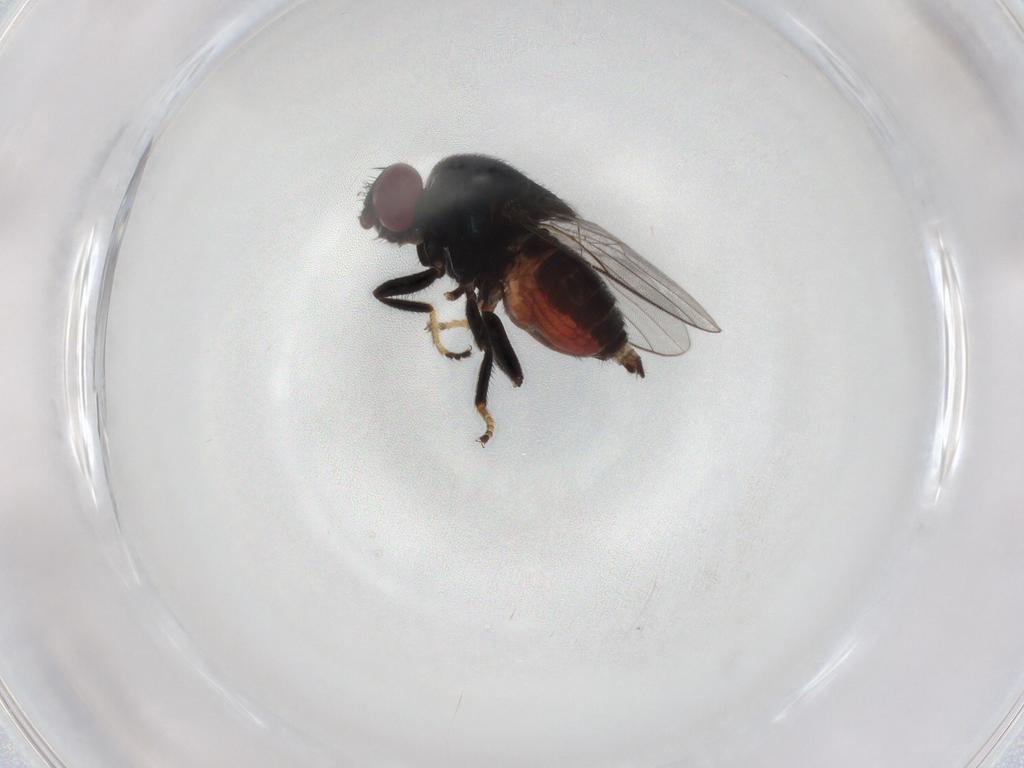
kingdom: Animalia
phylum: Arthropoda
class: Insecta
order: Diptera
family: Chloropidae
